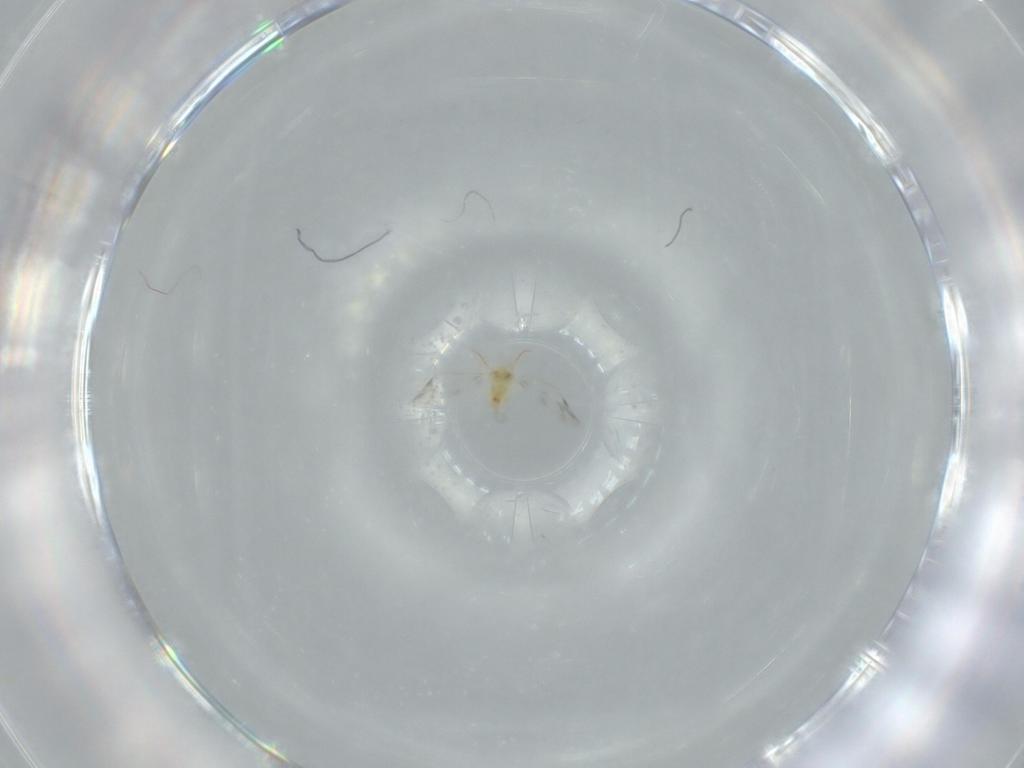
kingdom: Animalia
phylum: Arthropoda
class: Insecta
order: Hemiptera
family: Aleyrodidae
